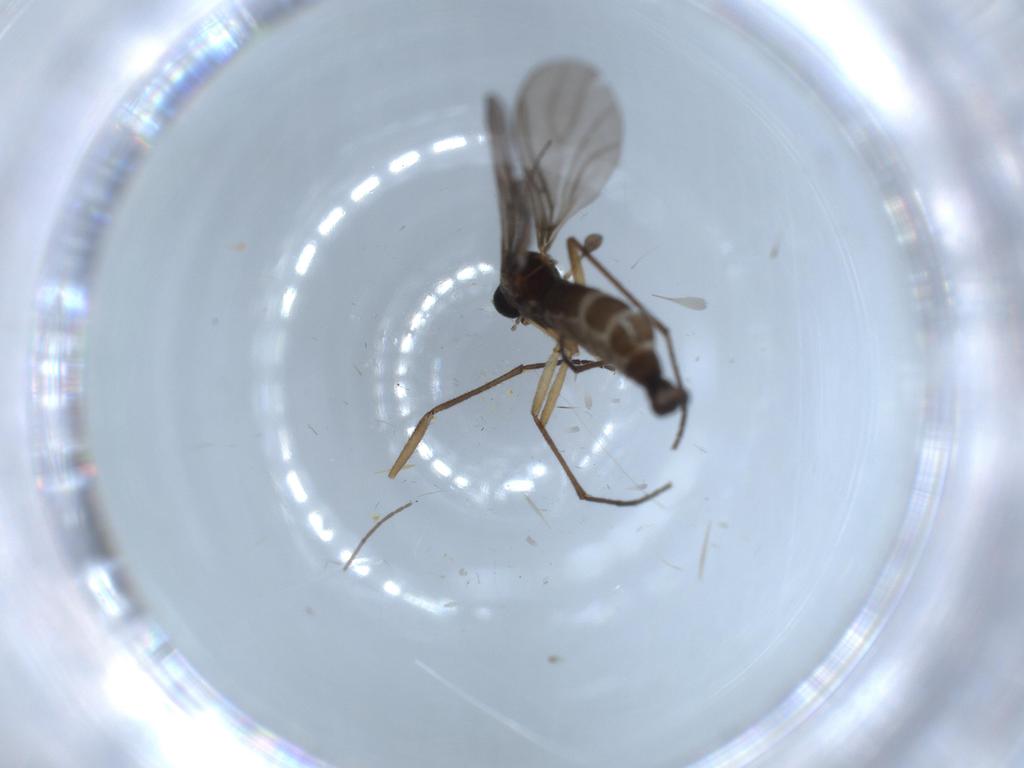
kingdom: Animalia
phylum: Arthropoda
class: Insecta
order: Diptera
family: Sciaridae
